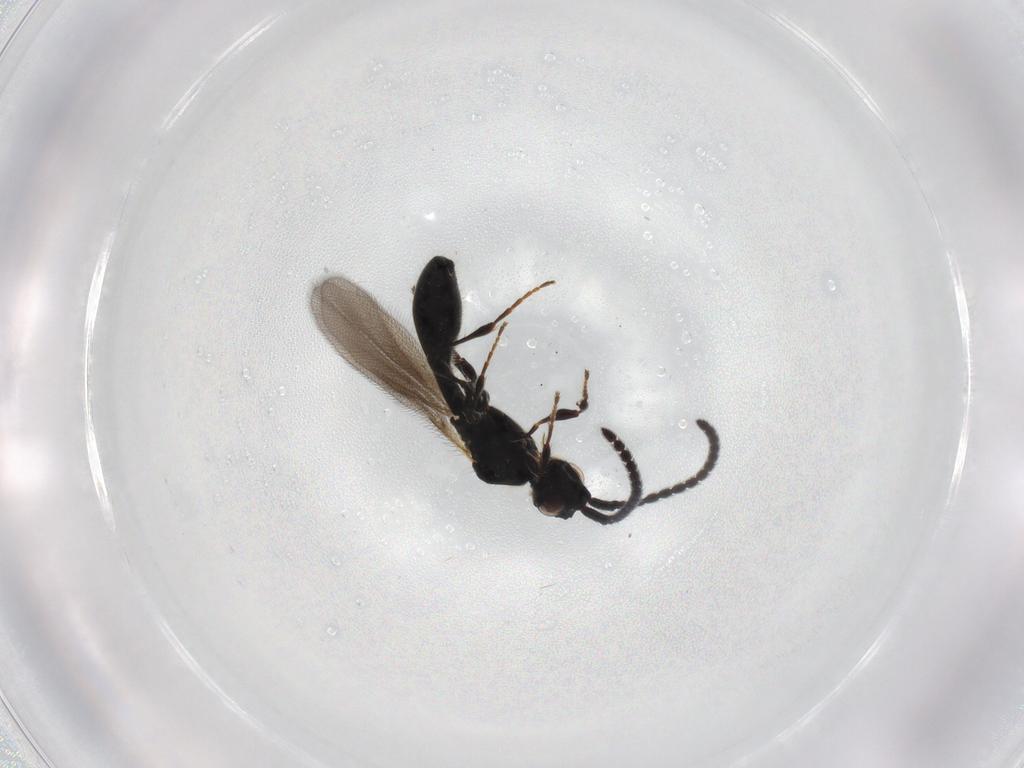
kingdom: Animalia
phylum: Arthropoda
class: Insecta
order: Hymenoptera
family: Diapriidae
